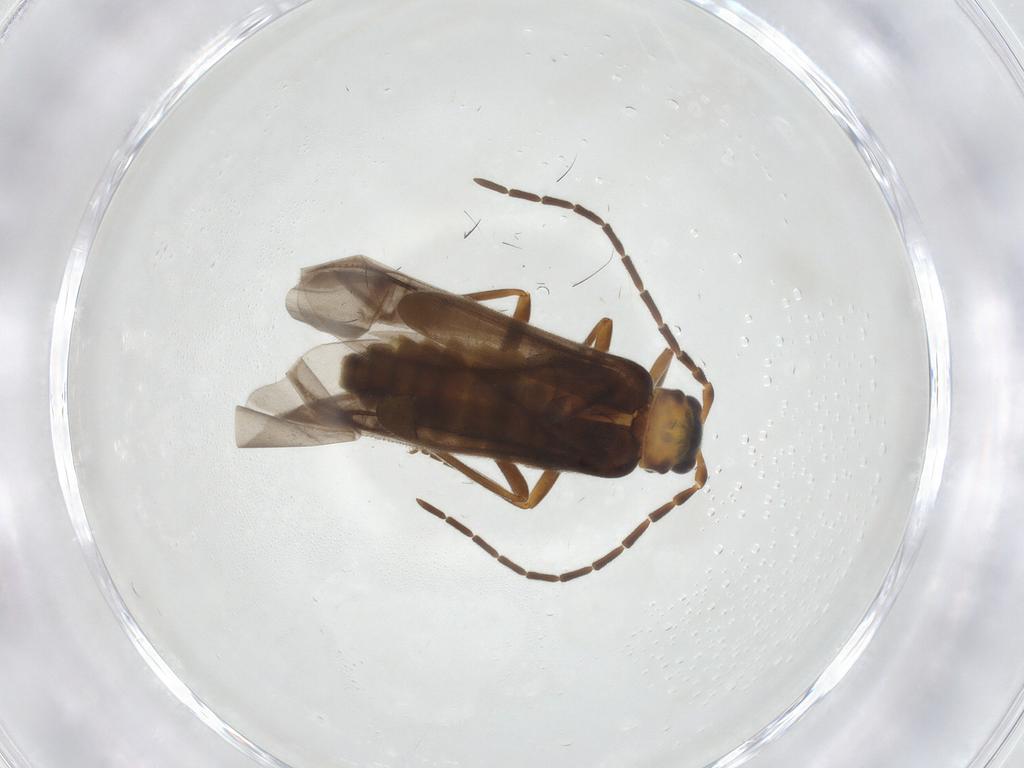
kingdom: Animalia
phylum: Arthropoda
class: Insecta
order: Coleoptera
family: Cantharidae
